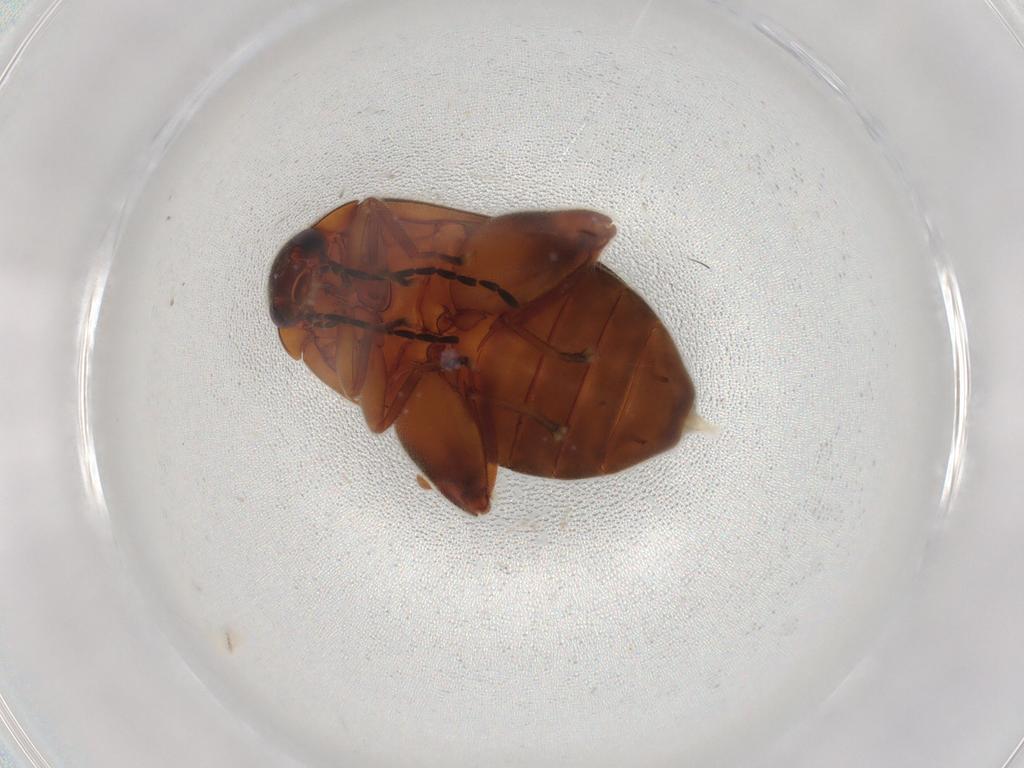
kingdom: Animalia
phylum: Arthropoda
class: Insecta
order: Coleoptera
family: Scirtidae
